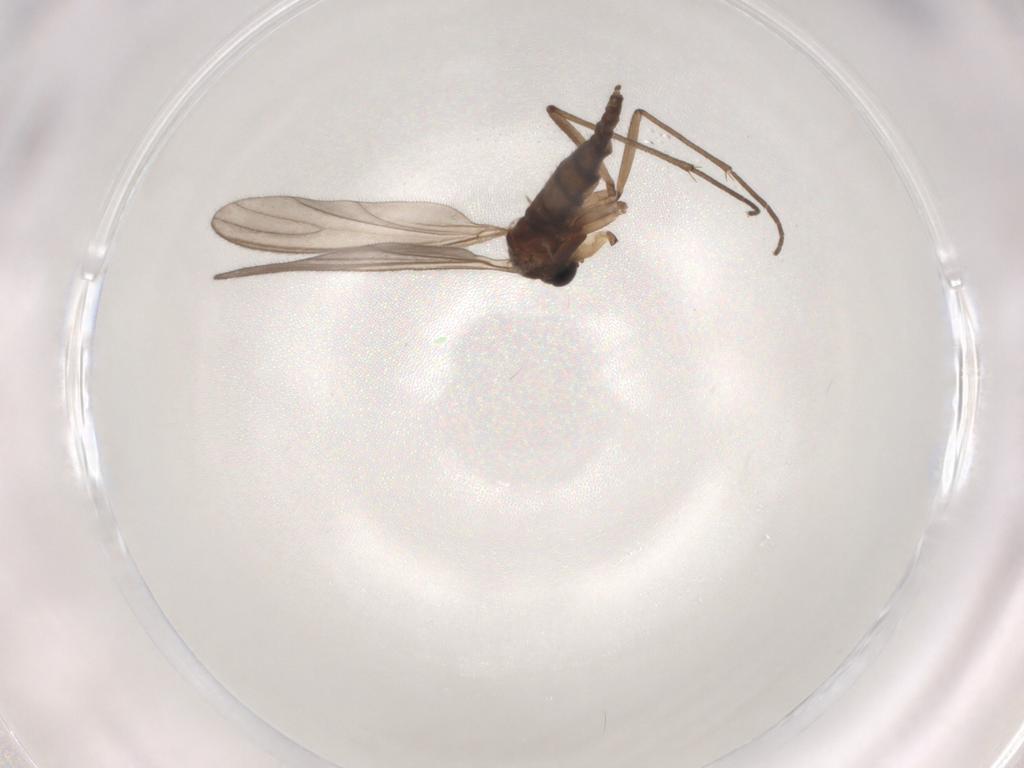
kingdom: Animalia
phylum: Arthropoda
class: Insecta
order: Diptera
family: Sciaridae
